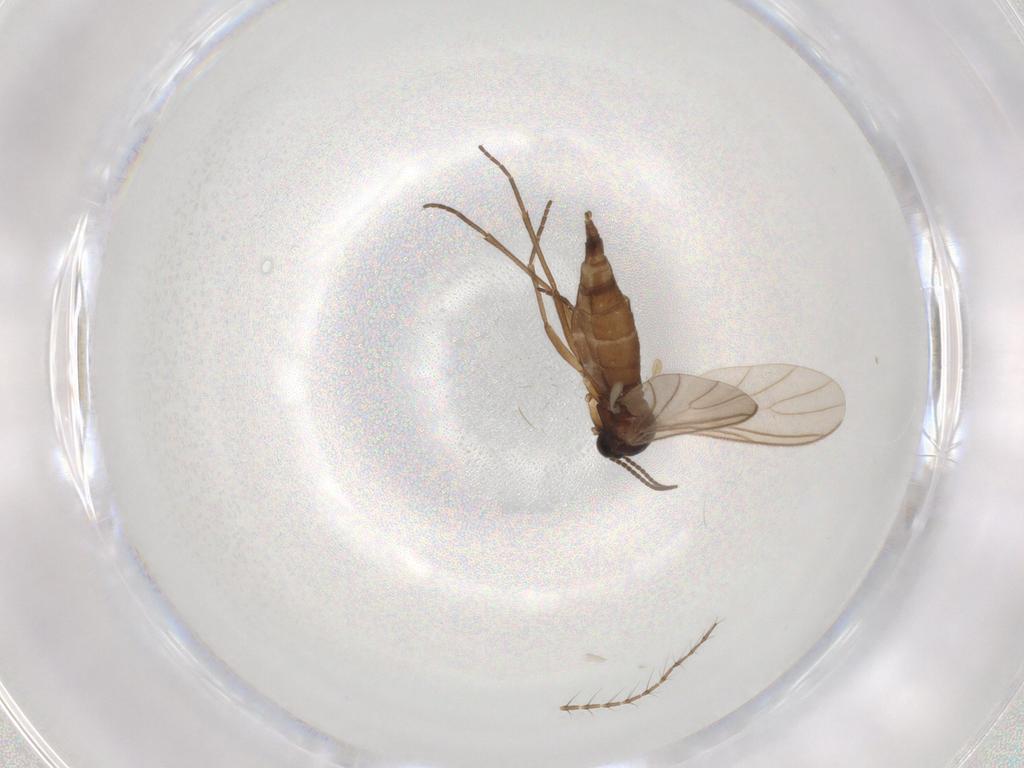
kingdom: Animalia
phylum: Arthropoda
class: Insecta
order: Diptera
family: Sciaridae
